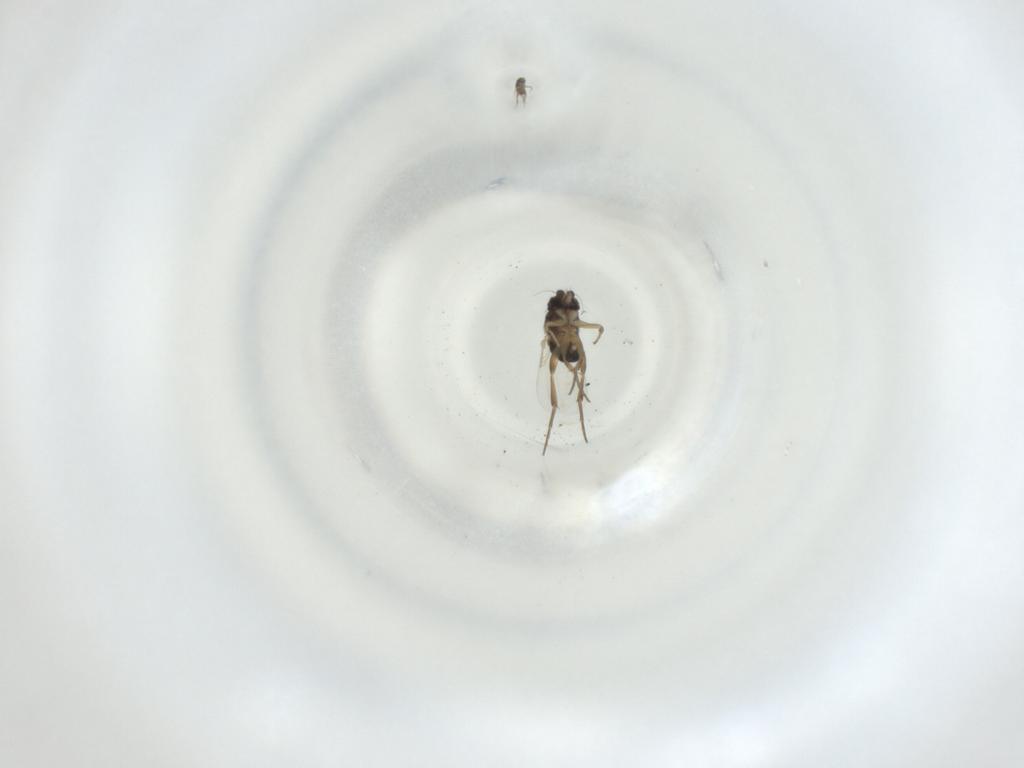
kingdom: Animalia
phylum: Arthropoda
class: Insecta
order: Diptera
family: Phoridae
